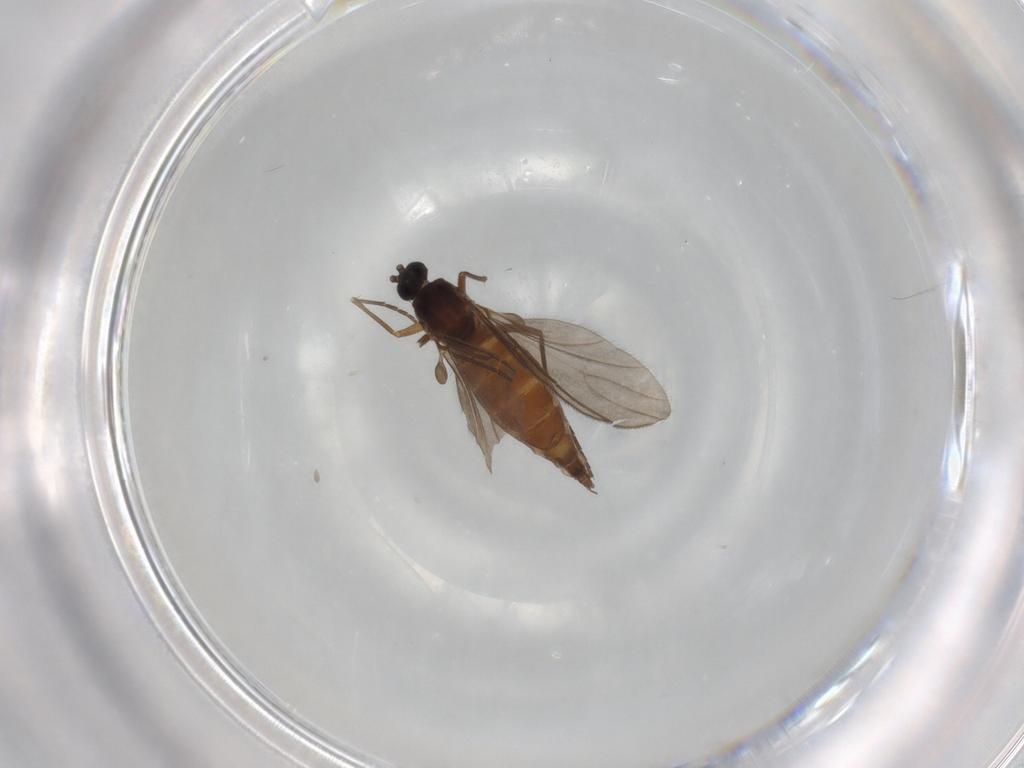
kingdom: Animalia
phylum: Arthropoda
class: Insecta
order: Diptera
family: Sciaridae
